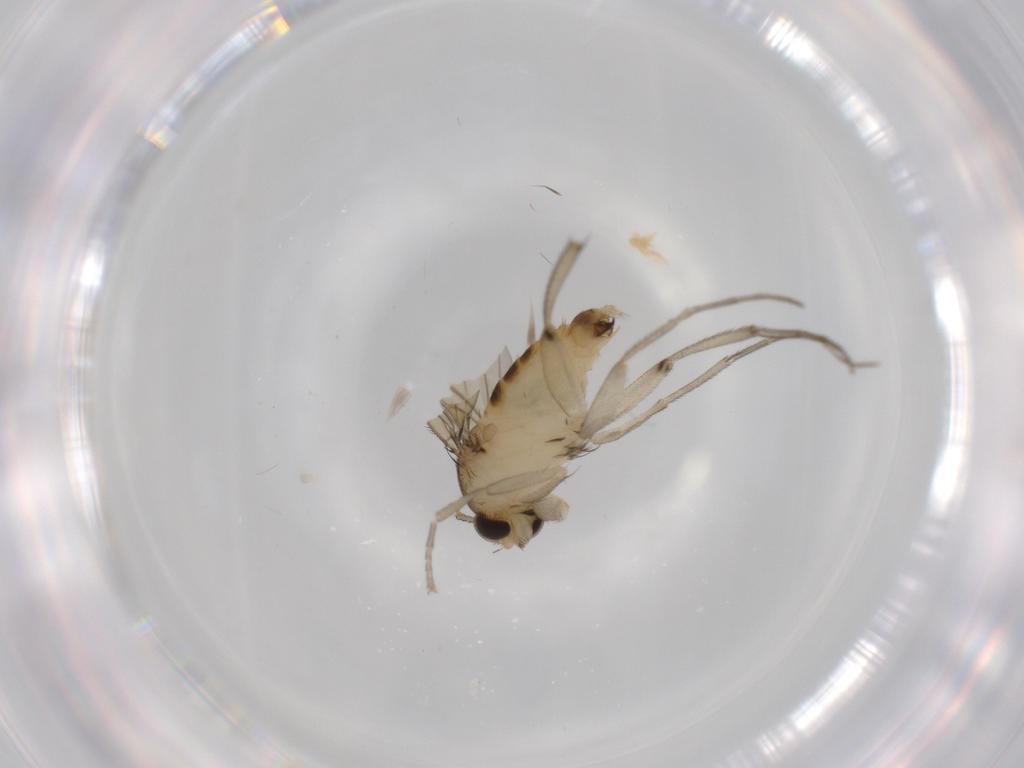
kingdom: Animalia
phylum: Arthropoda
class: Insecta
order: Diptera
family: Phoridae
